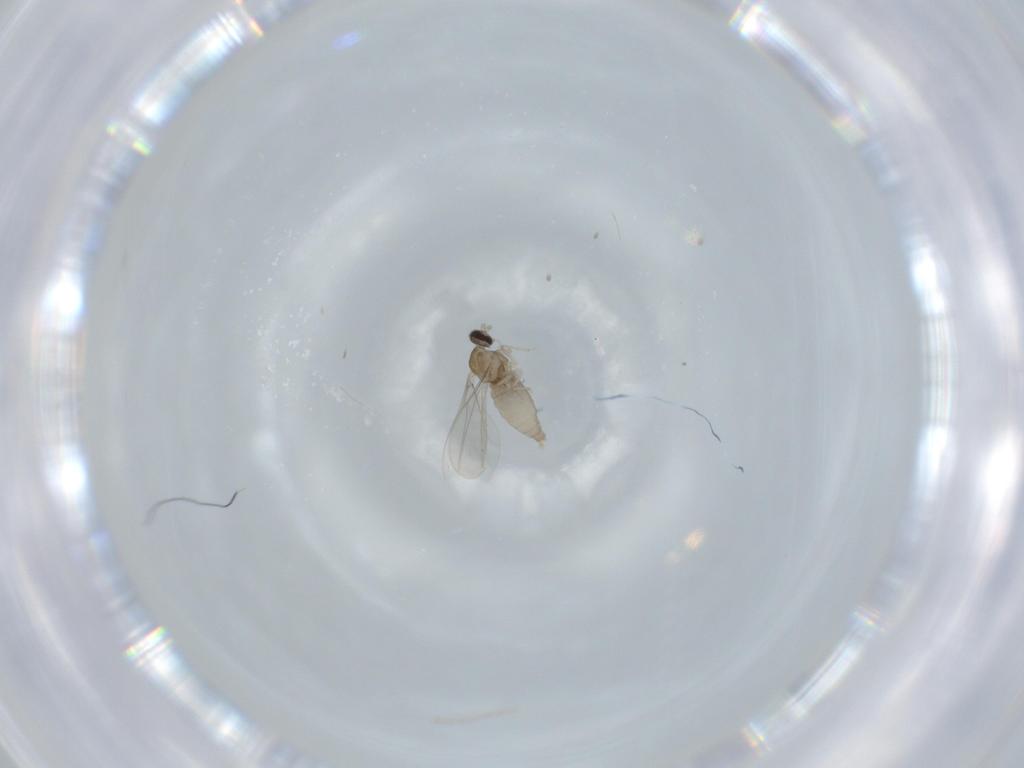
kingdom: Animalia
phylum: Arthropoda
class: Insecta
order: Diptera
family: Cecidomyiidae
